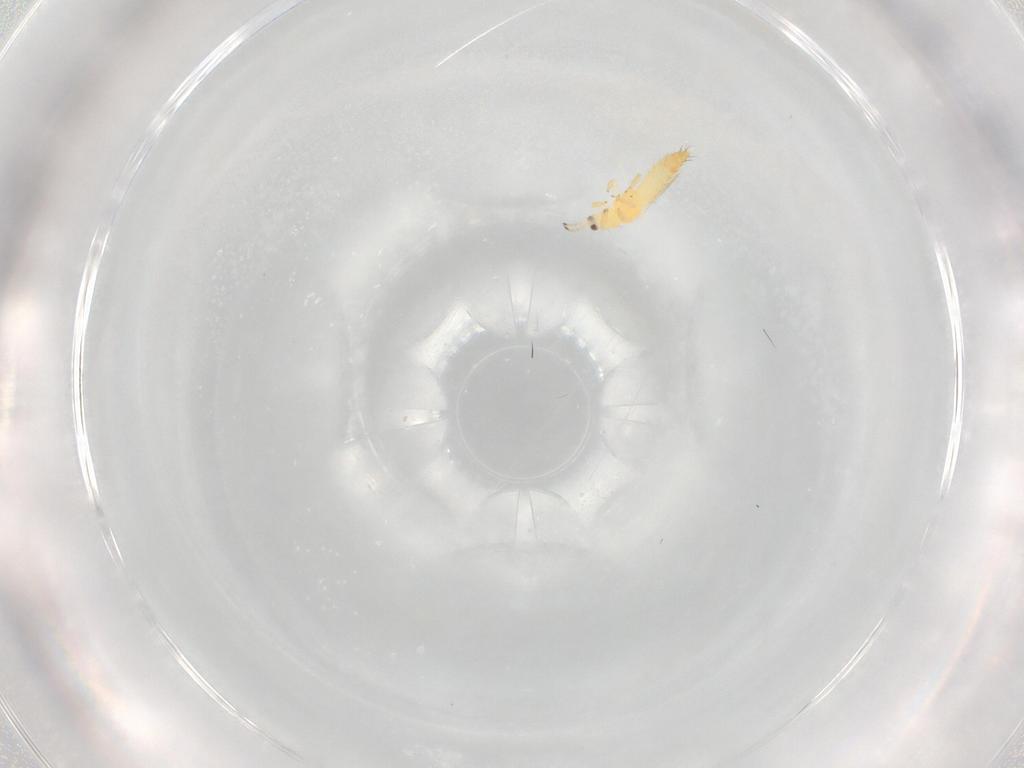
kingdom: Animalia
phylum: Arthropoda
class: Insecta
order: Thysanoptera
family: Thripidae
